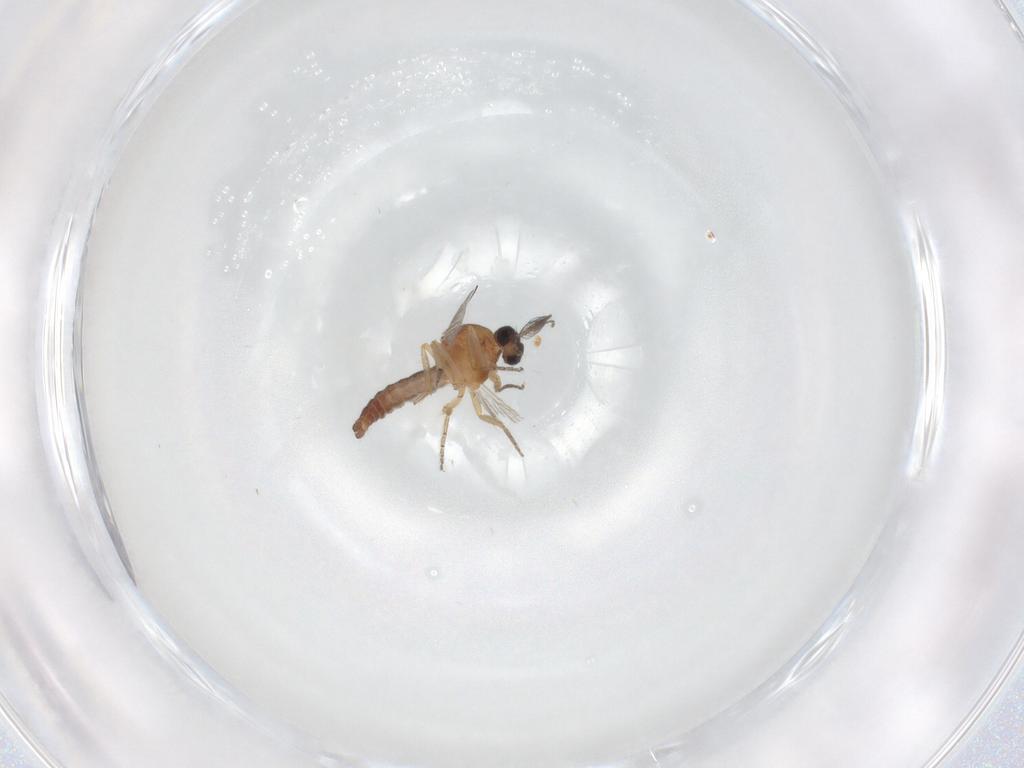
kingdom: Animalia
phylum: Arthropoda
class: Insecta
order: Diptera
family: Ceratopogonidae
